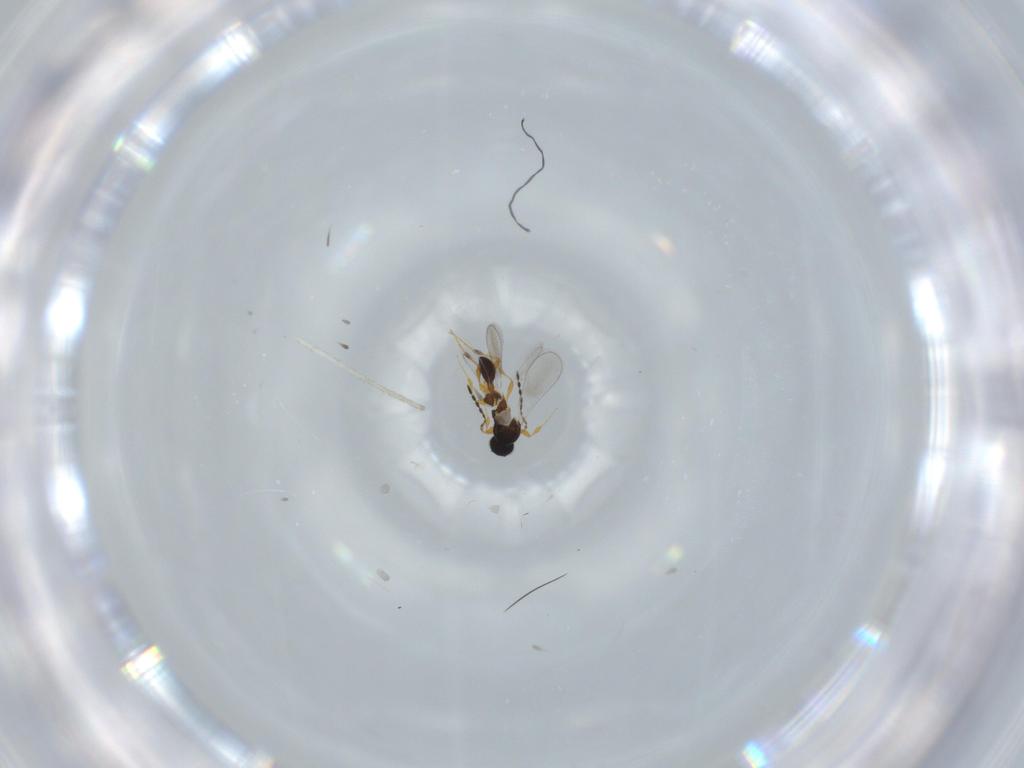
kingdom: Animalia
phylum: Arthropoda
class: Insecta
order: Hymenoptera
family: Platygastridae
